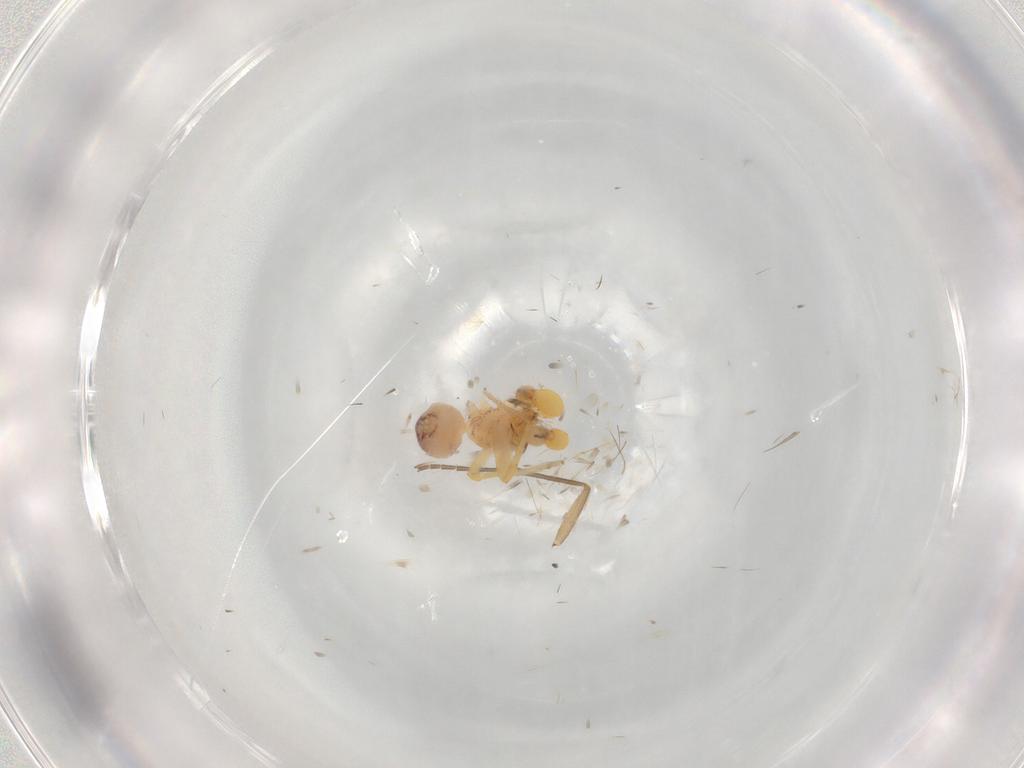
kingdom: Animalia
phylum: Arthropoda
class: Arachnida
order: Araneae
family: Dictynidae
